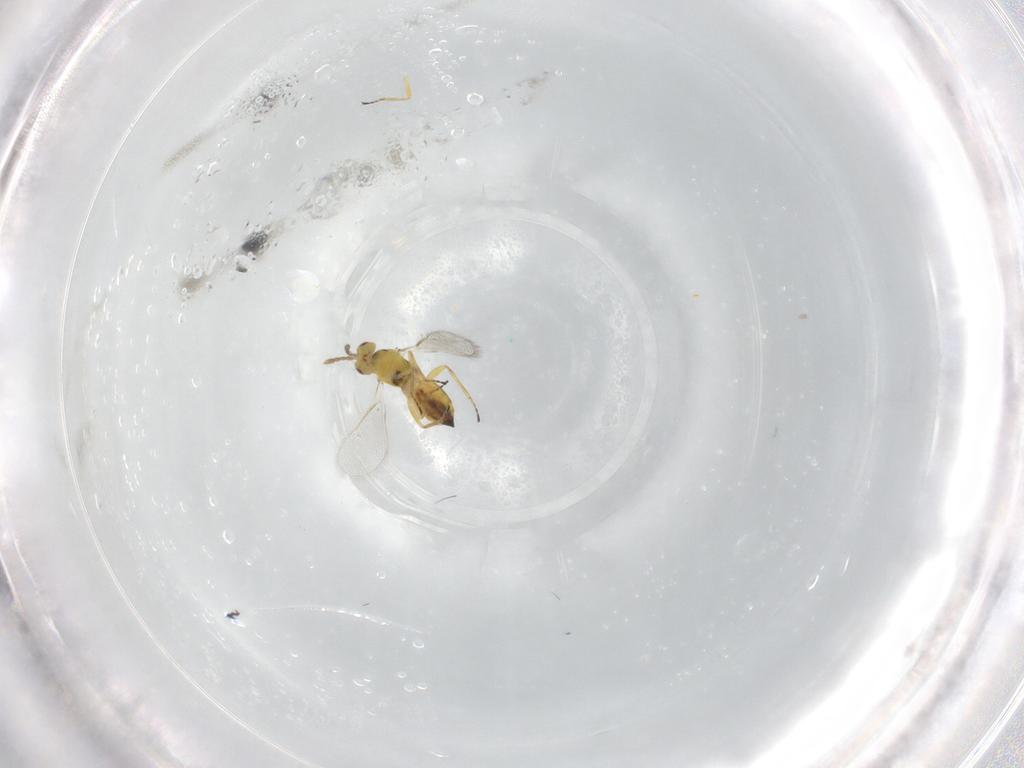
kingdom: Animalia
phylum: Arthropoda
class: Insecta
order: Hymenoptera
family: Eulophidae
